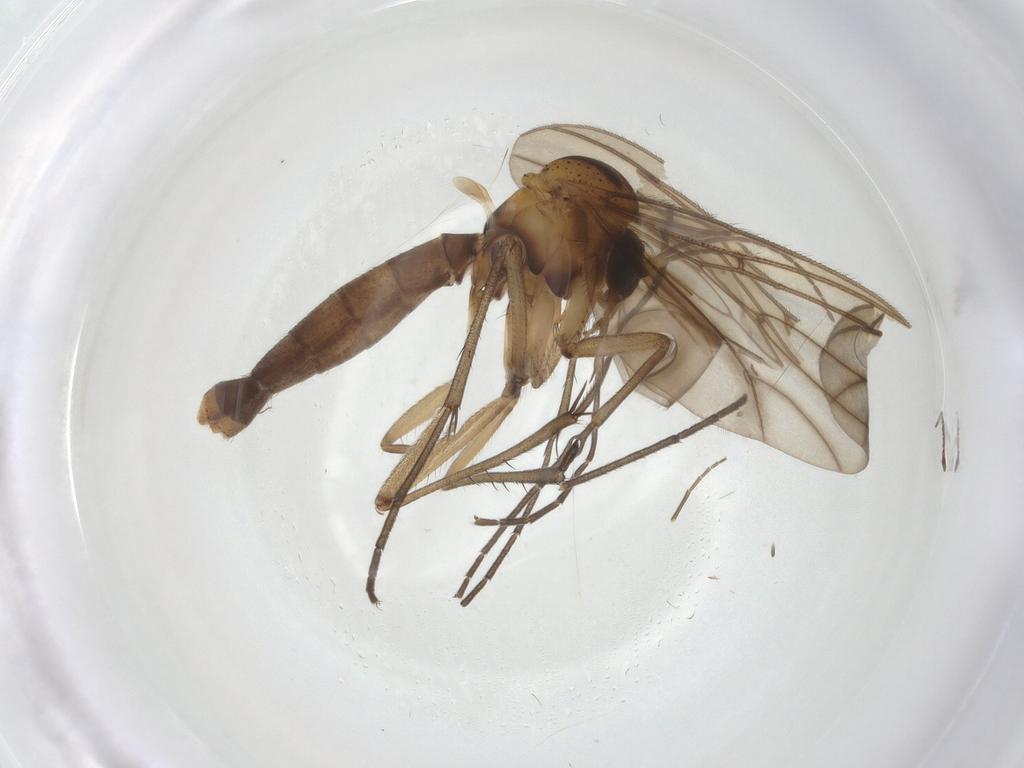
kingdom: Animalia
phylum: Arthropoda
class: Insecta
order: Diptera
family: Sciaridae
